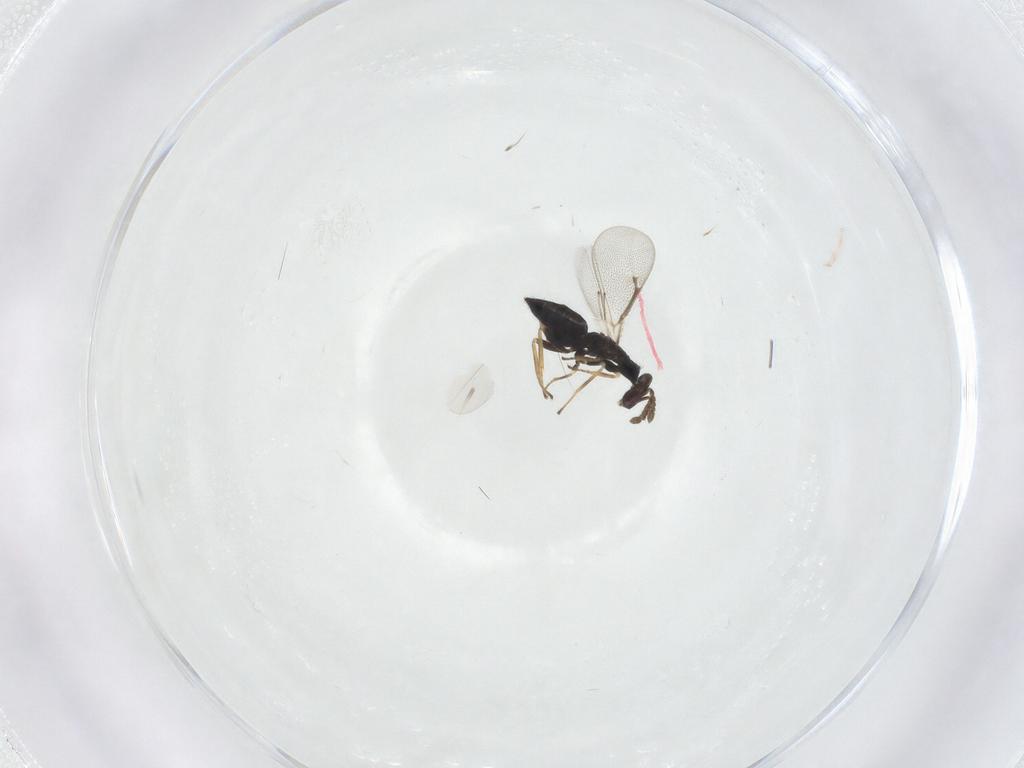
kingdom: Animalia
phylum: Arthropoda
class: Insecta
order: Hymenoptera
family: Eulophidae
